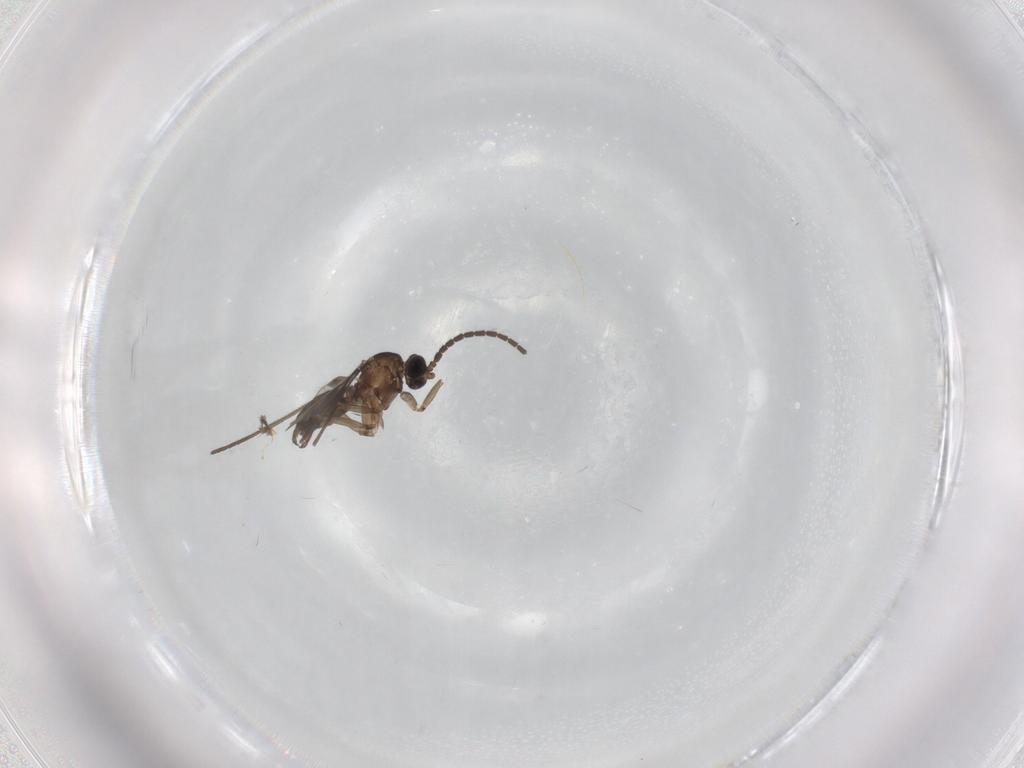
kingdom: Animalia
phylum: Arthropoda
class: Insecta
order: Diptera
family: Sciaridae
